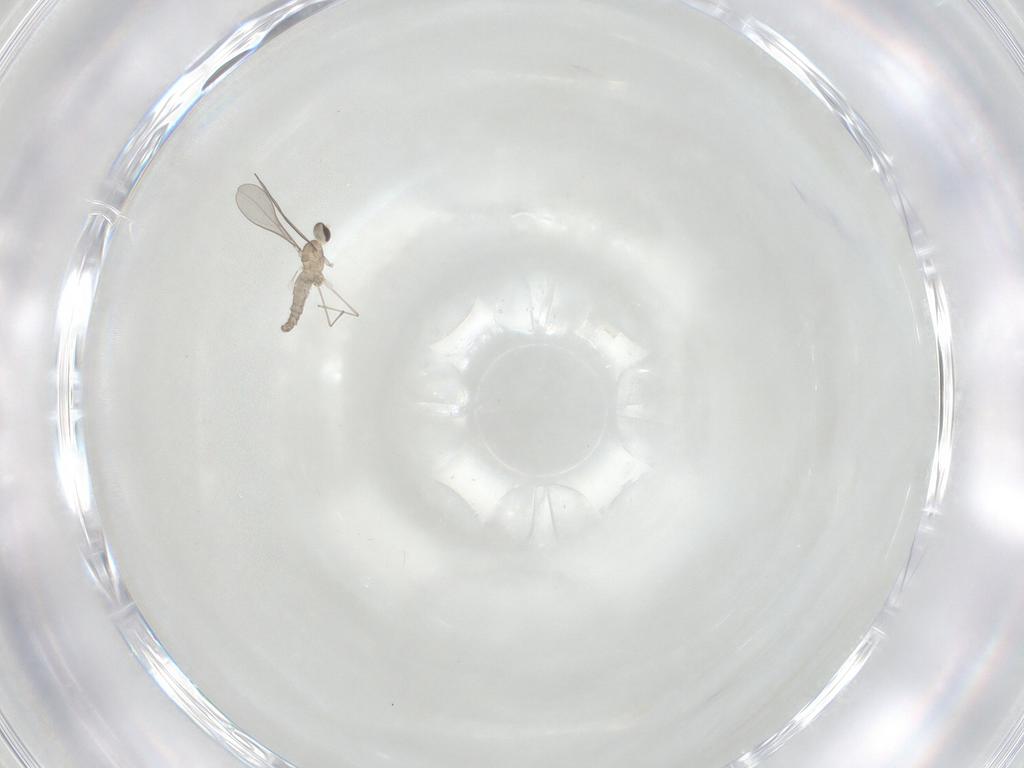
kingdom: Animalia
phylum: Arthropoda
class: Insecta
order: Diptera
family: Cecidomyiidae
